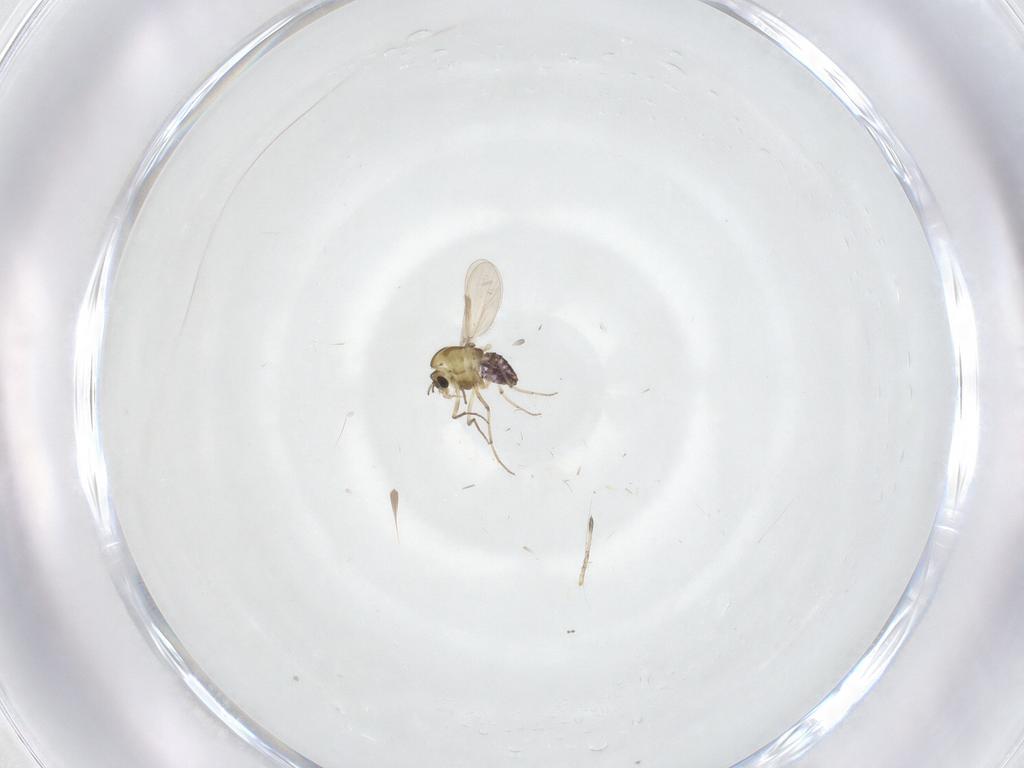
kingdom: Animalia
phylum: Arthropoda
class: Insecta
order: Diptera
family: Chironomidae
